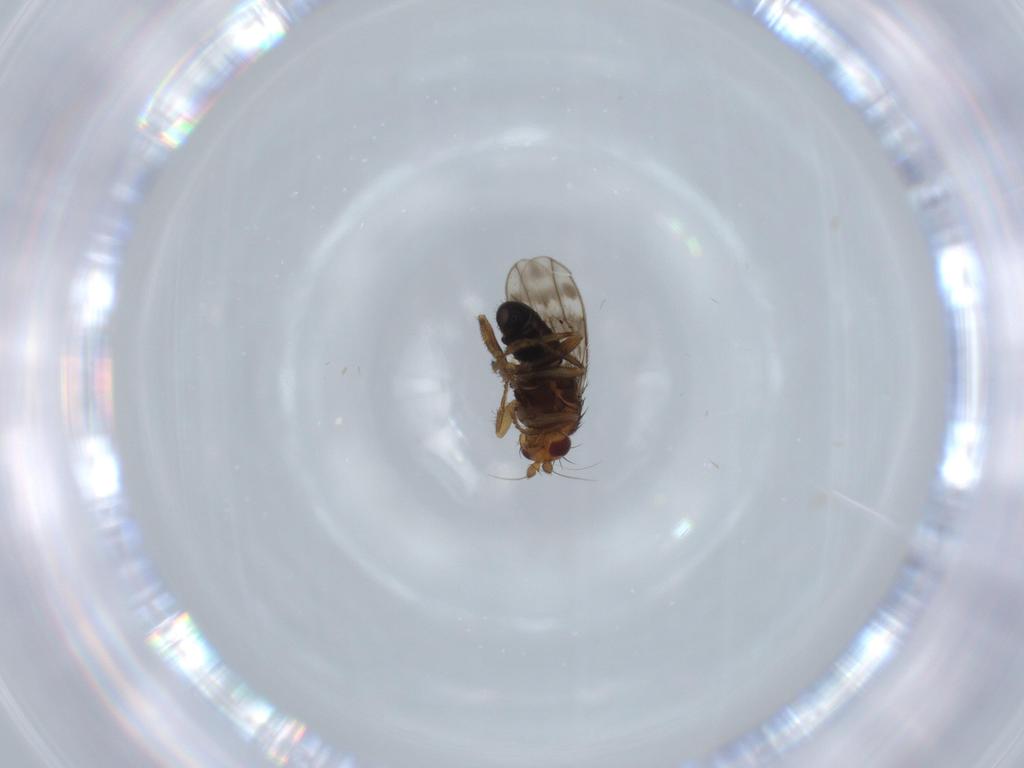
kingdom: Animalia
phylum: Arthropoda
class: Insecta
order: Diptera
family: Sphaeroceridae
